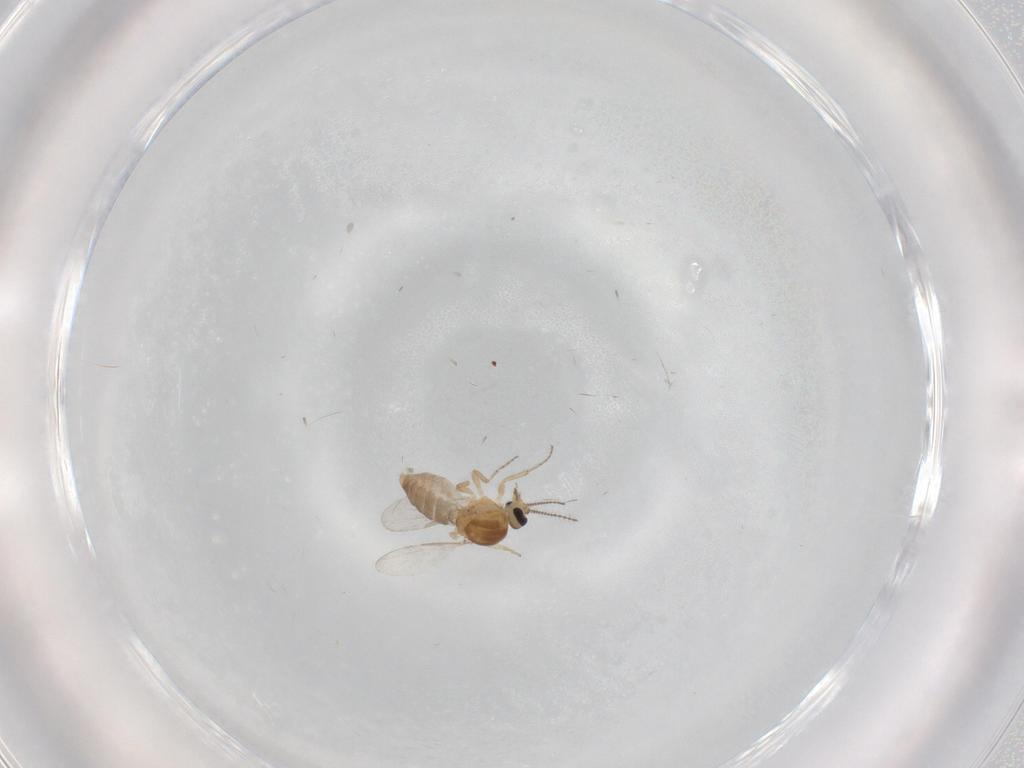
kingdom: Animalia
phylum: Arthropoda
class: Insecta
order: Diptera
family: Ceratopogonidae
